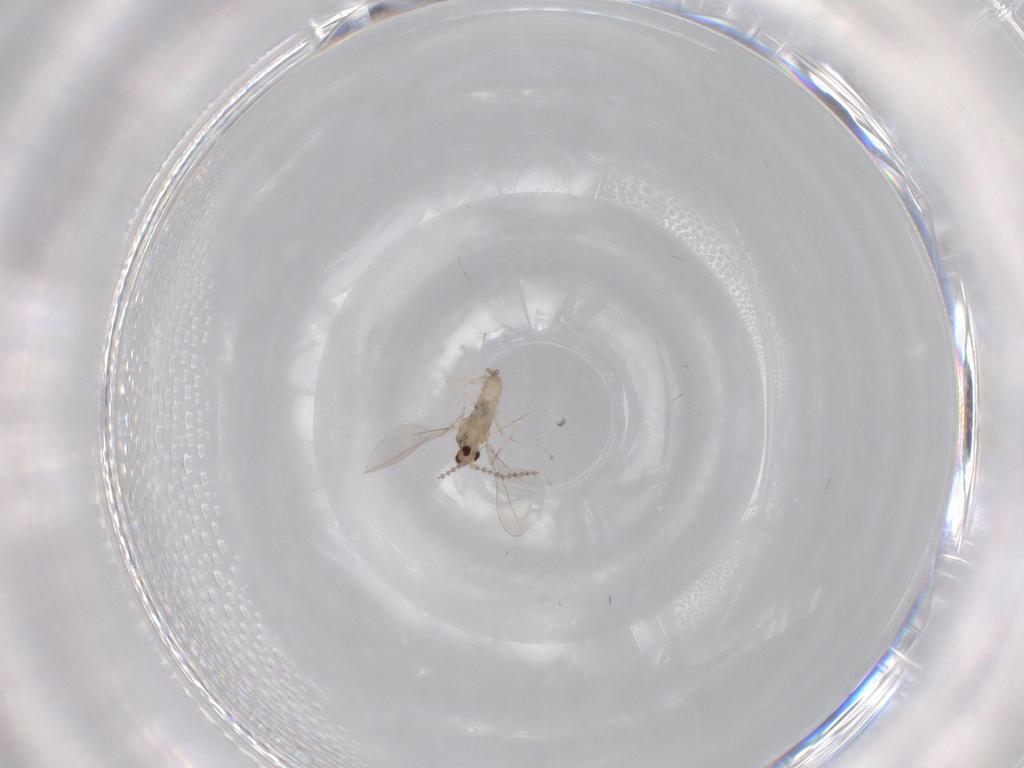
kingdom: Animalia
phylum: Arthropoda
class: Insecta
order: Diptera
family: Cecidomyiidae
